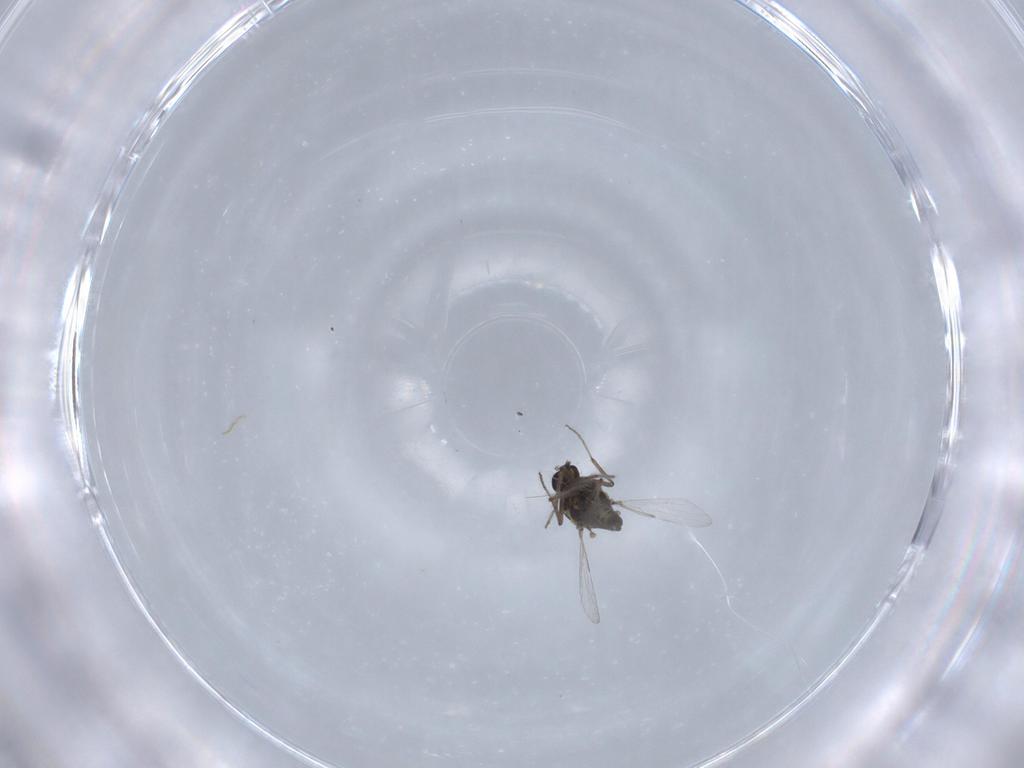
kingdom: Animalia
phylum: Arthropoda
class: Insecta
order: Diptera
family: Ceratopogonidae
